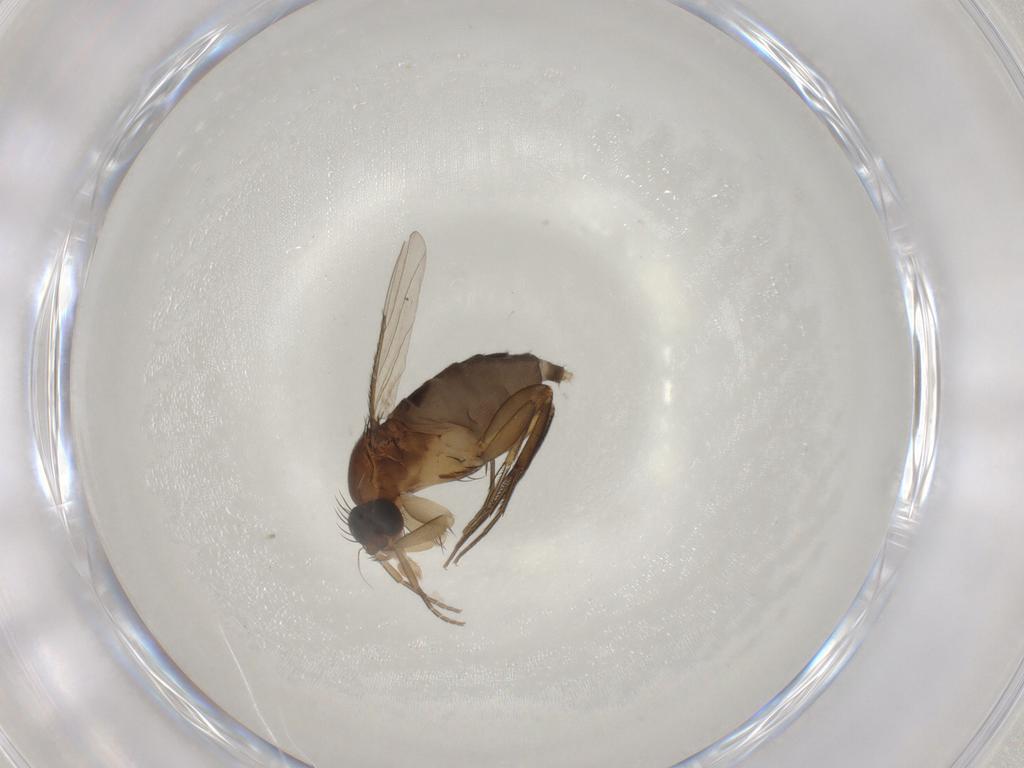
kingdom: Animalia
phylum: Arthropoda
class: Insecta
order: Diptera
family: Phoridae
